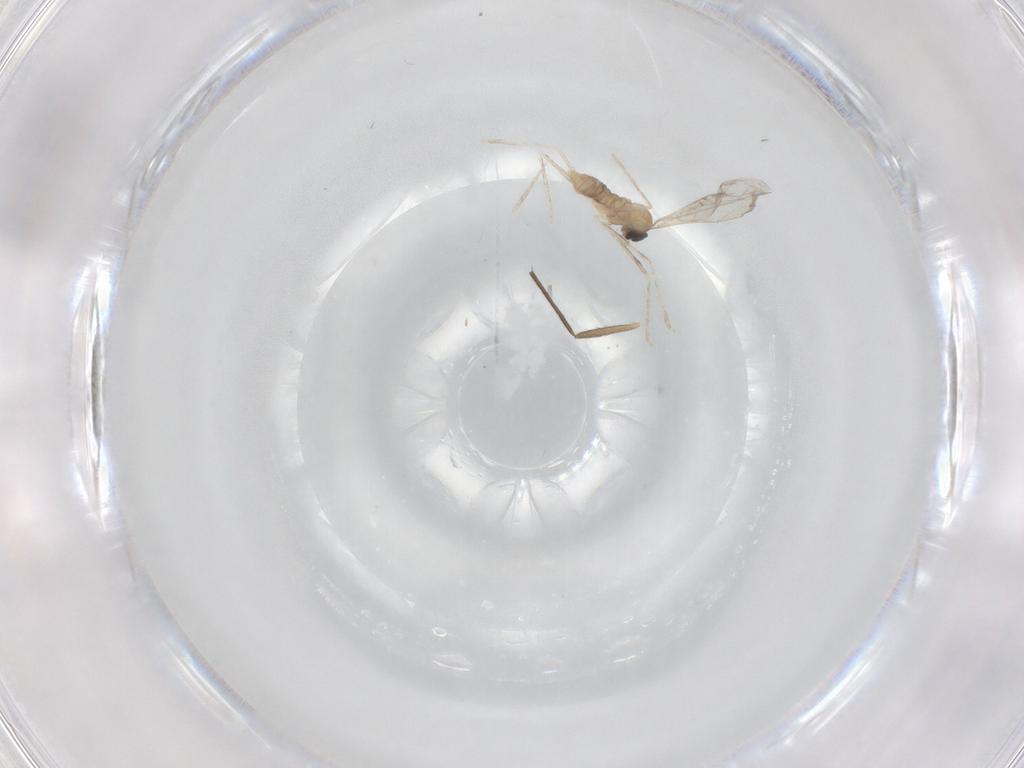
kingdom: Animalia
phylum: Arthropoda
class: Insecta
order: Diptera
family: Cecidomyiidae
